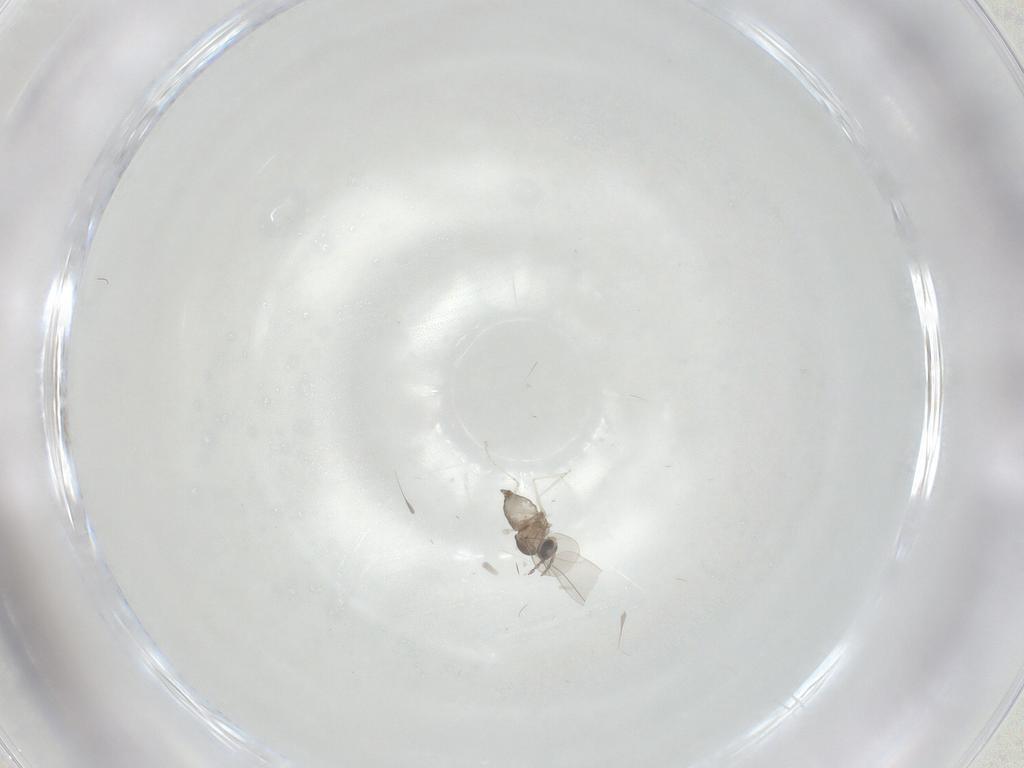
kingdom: Animalia
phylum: Arthropoda
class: Insecta
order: Diptera
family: Cecidomyiidae
